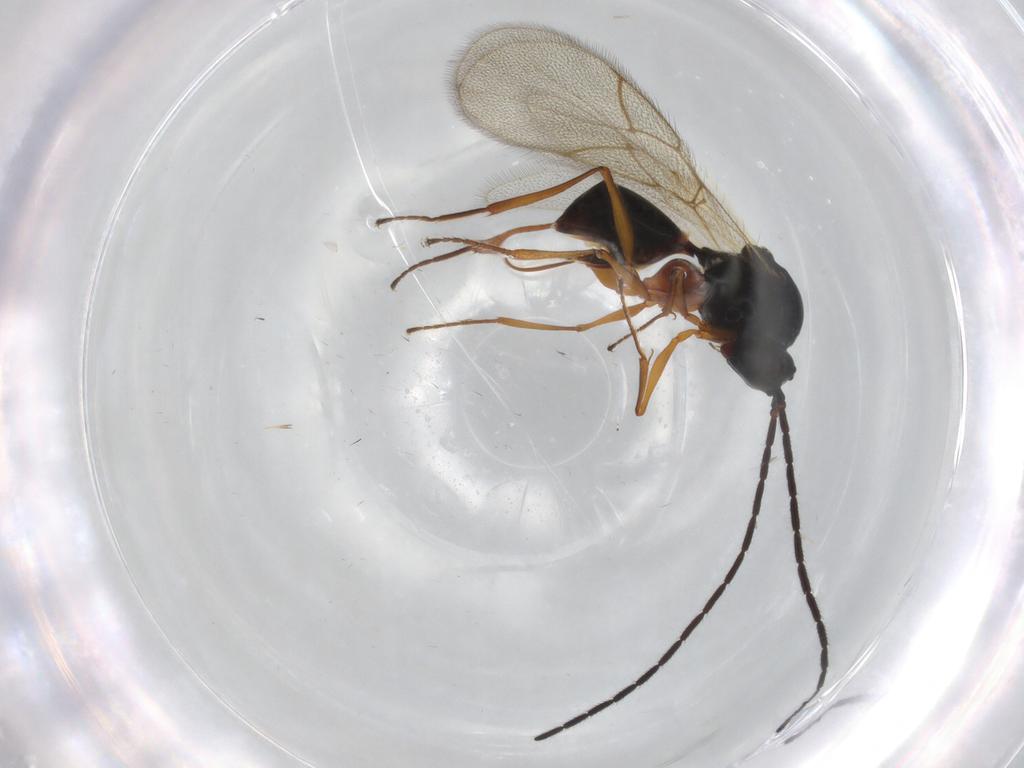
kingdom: Animalia
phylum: Arthropoda
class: Insecta
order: Hymenoptera
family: Figitidae
